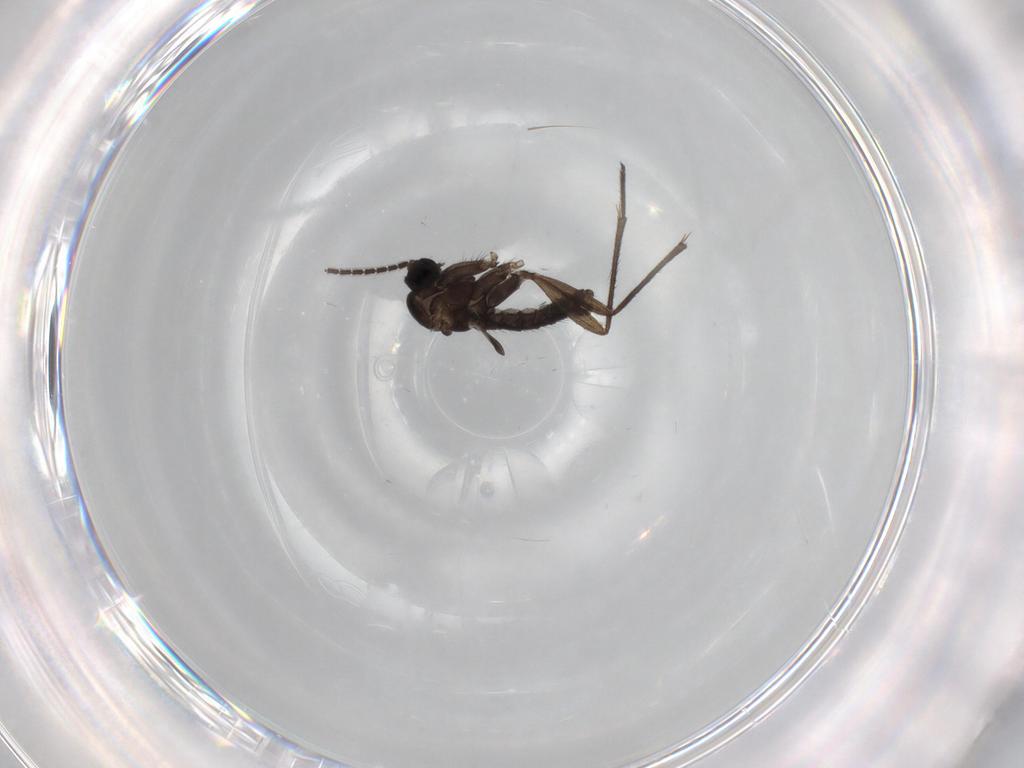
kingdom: Animalia
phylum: Arthropoda
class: Insecta
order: Diptera
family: Sciaridae
